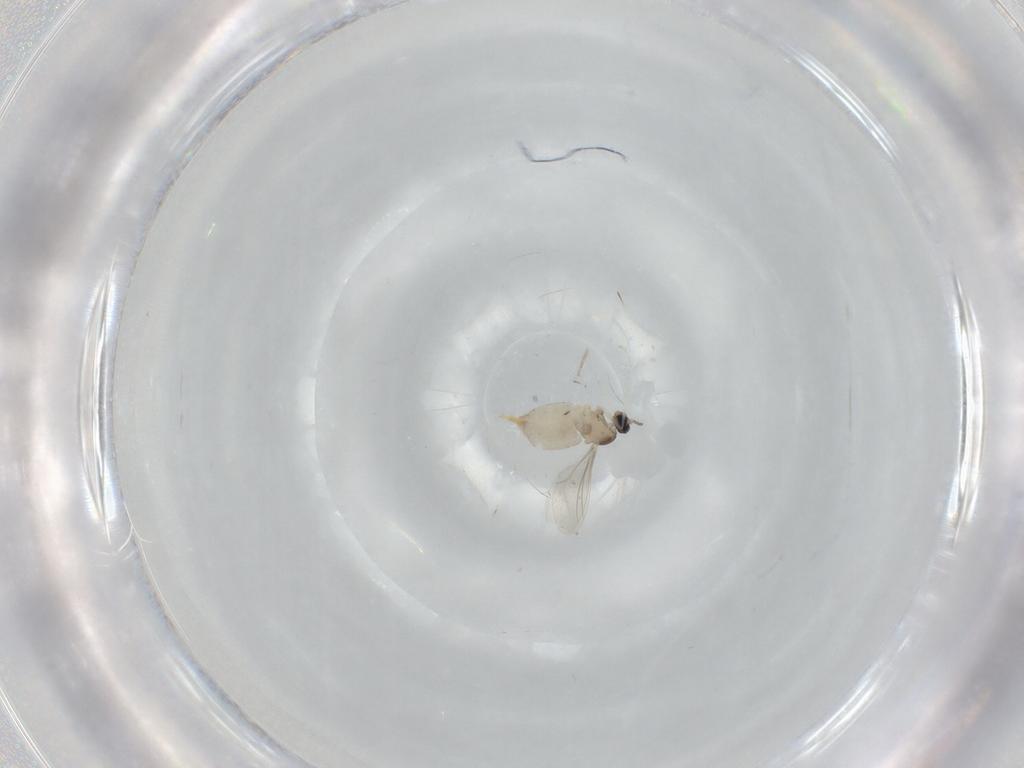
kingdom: Animalia
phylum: Arthropoda
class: Insecta
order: Diptera
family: Cecidomyiidae
